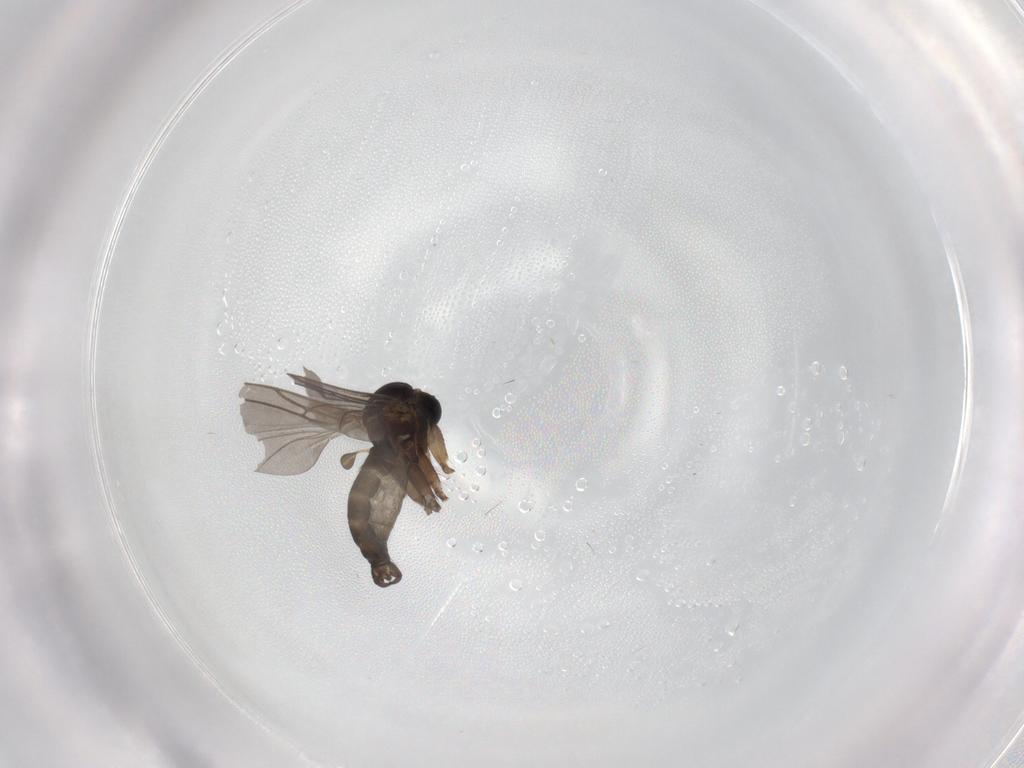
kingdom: Animalia
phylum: Arthropoda
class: Insecta
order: Diptera
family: Sciaridae
